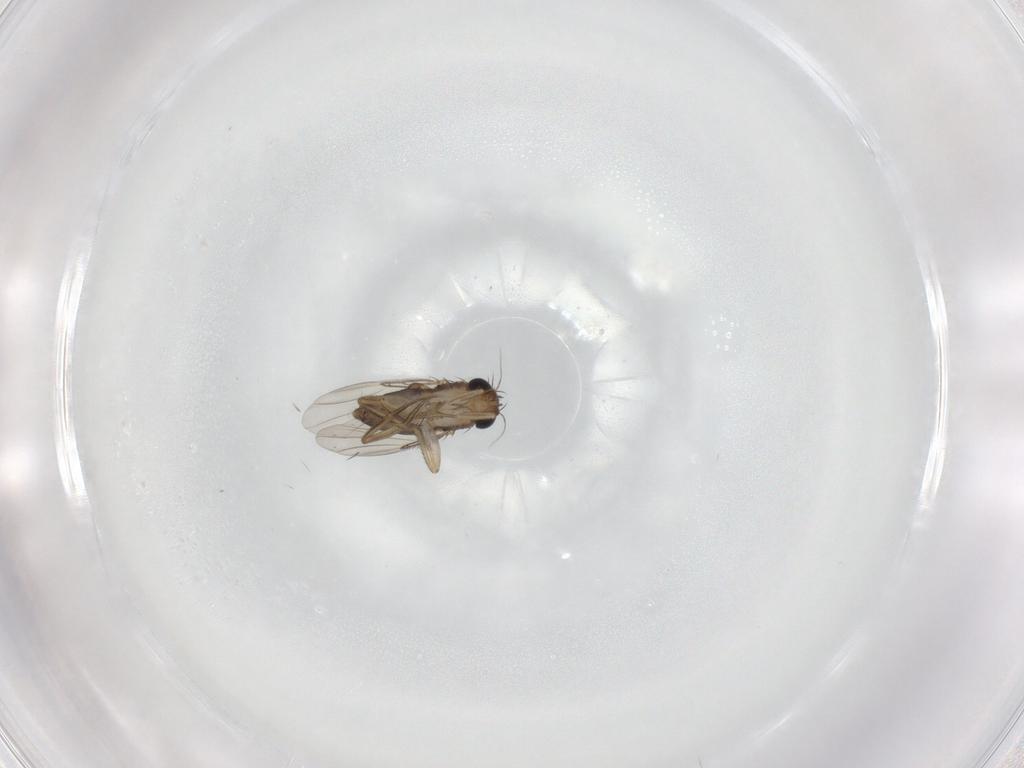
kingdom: Animalia
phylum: Arthropoda
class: Insecta
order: Diptera
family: Phoridae
